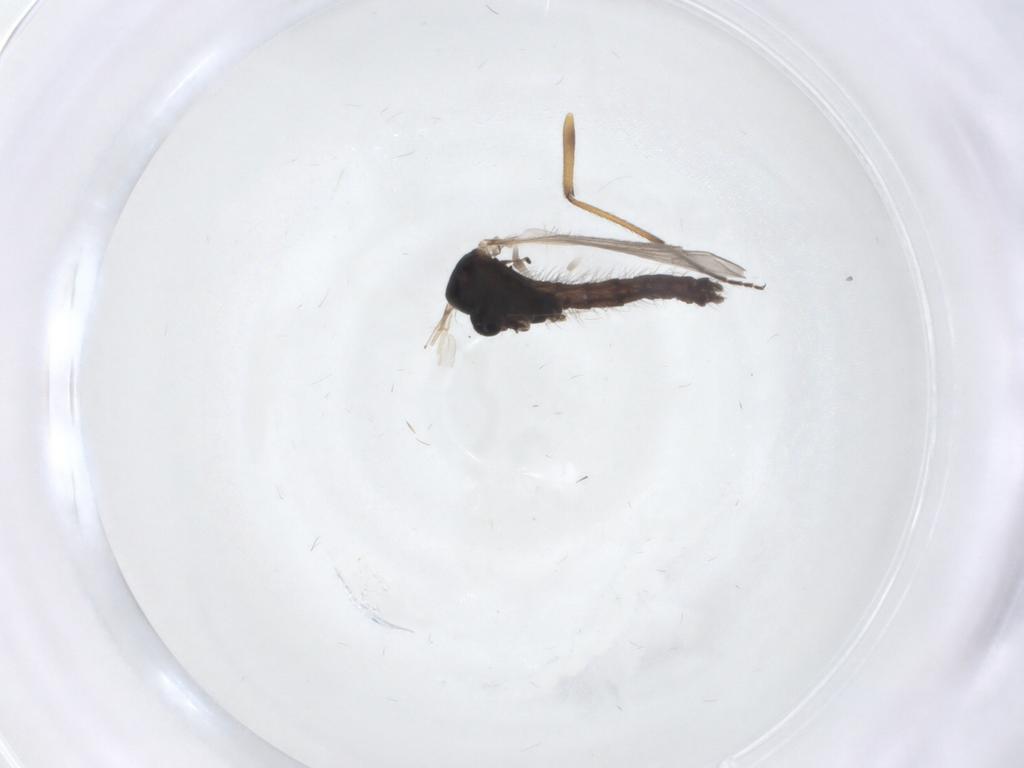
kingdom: Animalia
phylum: Arthropoda
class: Insecta
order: Diptera
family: Chironomidae
